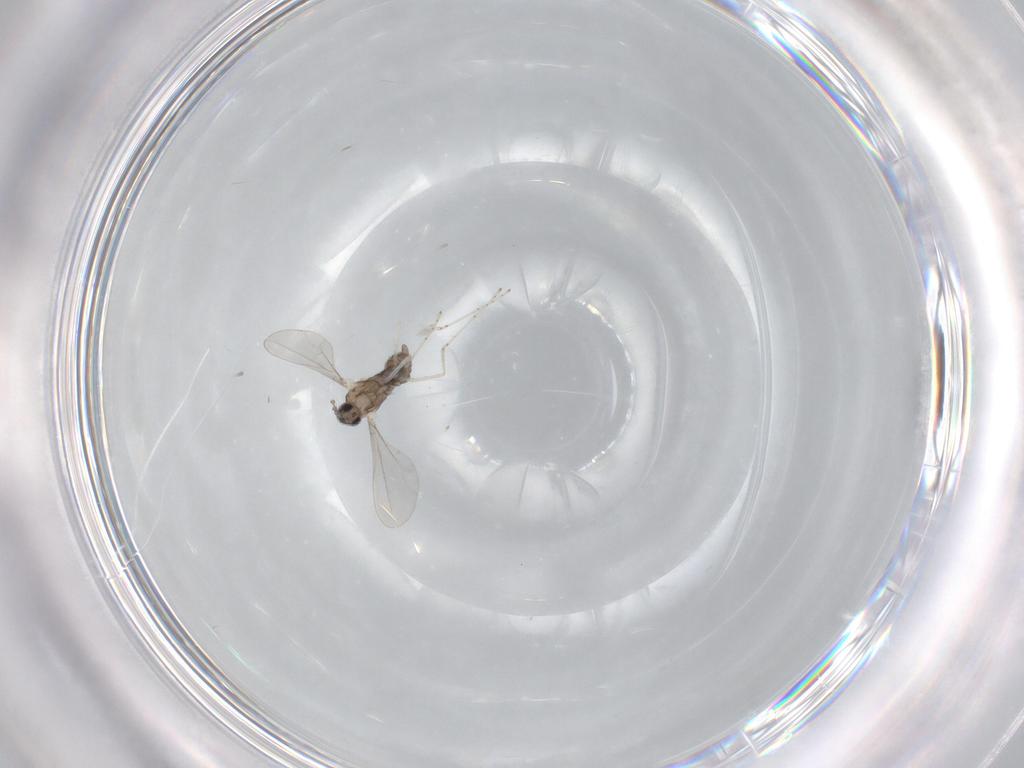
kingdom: Animalia
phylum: Arthropoda
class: Insecta
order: Diptera
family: Cecidomyiidae
